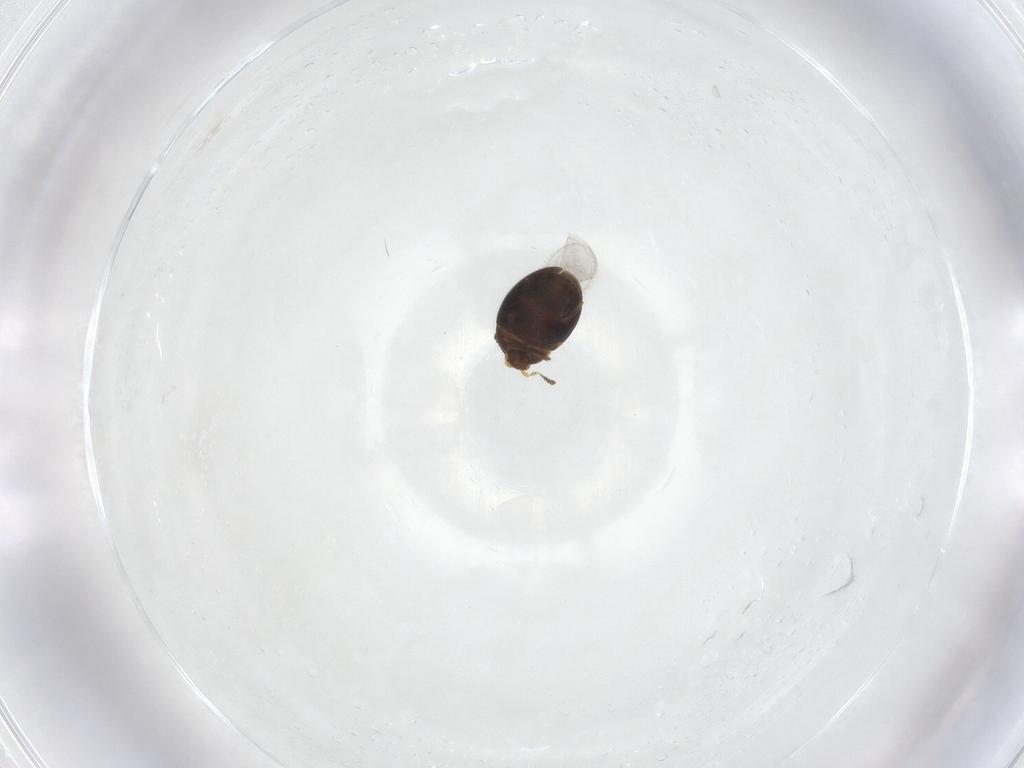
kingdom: Animalia
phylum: Arthropoda
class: Insecta
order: Coleoptera
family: Corylophidae
